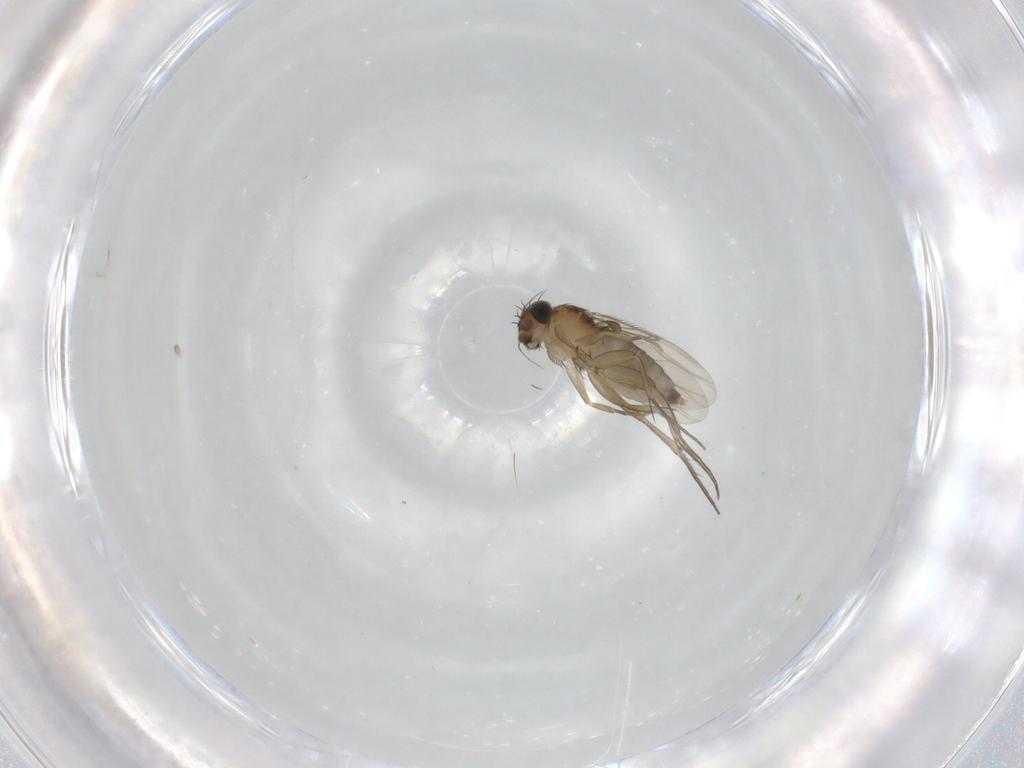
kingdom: Animalia
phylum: Arthropoda
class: Insecta
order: Diptera
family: Phoridae
